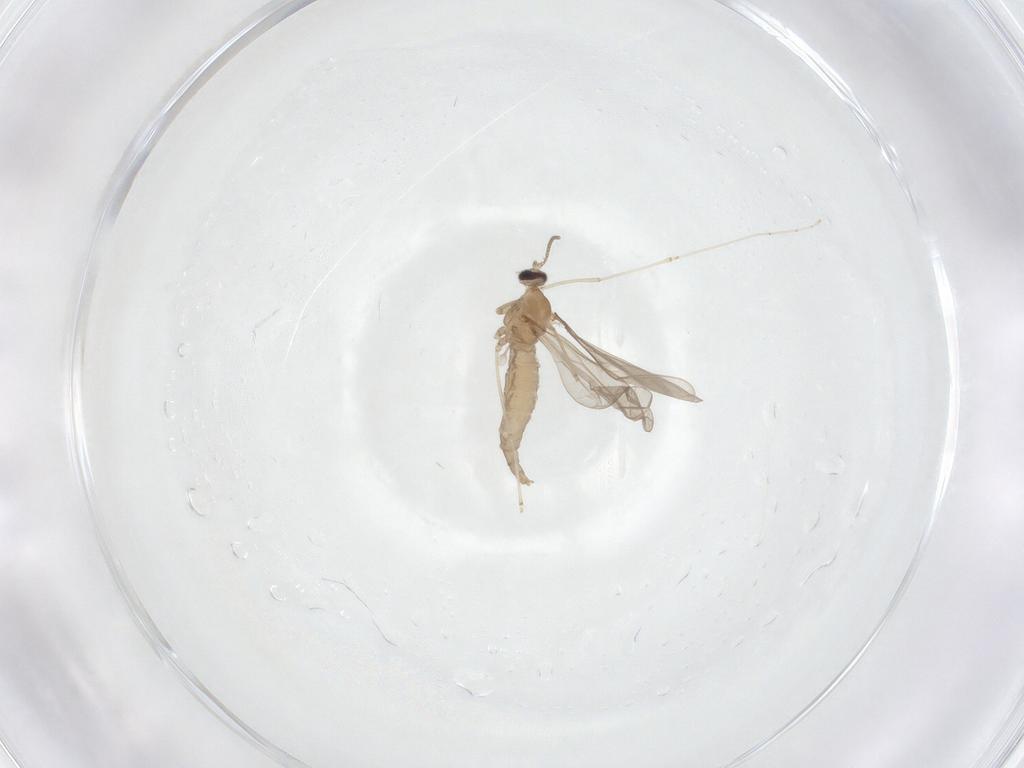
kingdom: Animalia
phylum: Arthropoda
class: Insecta
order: Diptera
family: Cecidomyiidae
